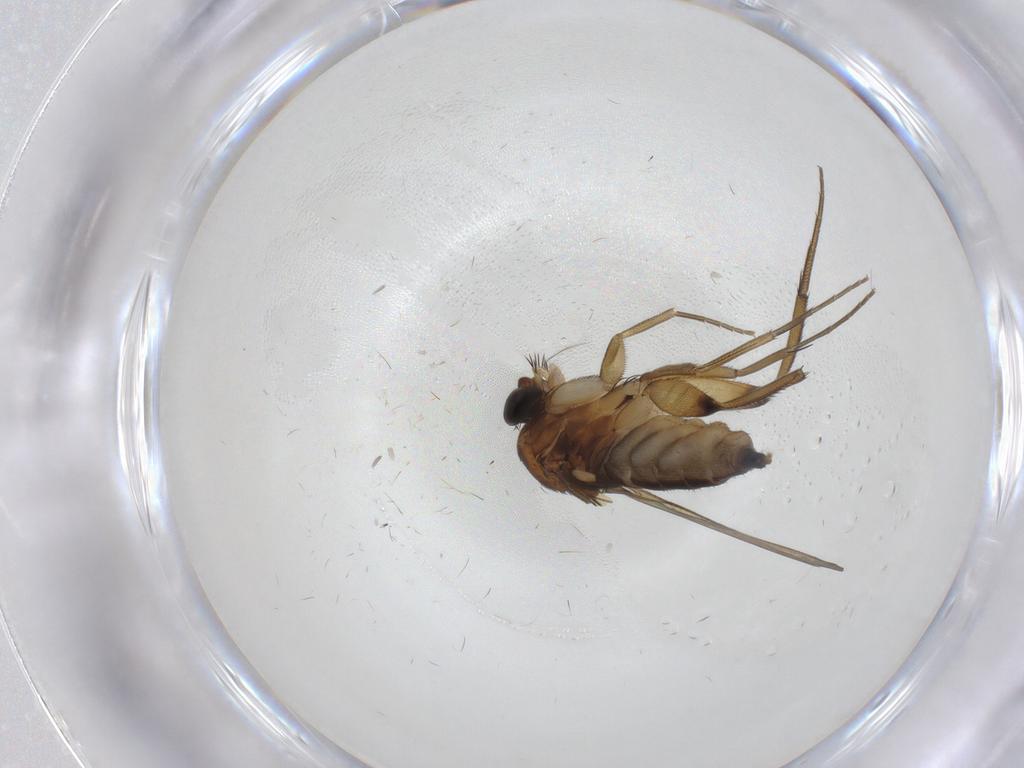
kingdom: Animalia
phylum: Arthropoda
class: Insecta
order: Diptera
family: Phoridae
